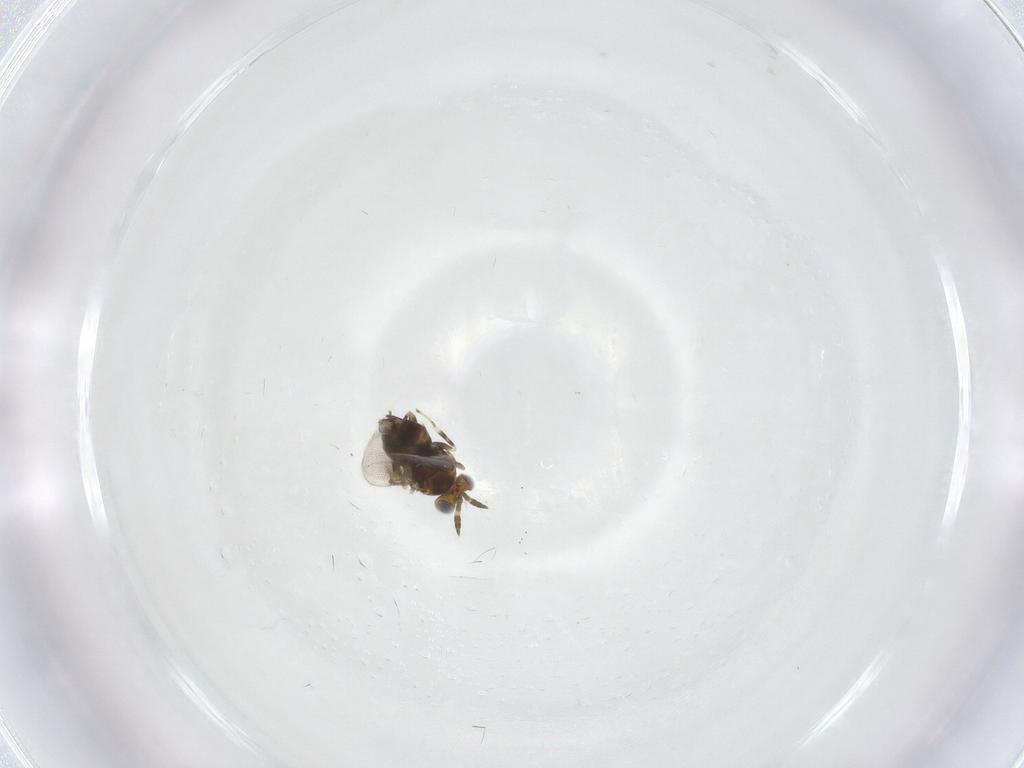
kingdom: Animalia
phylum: Arthropoda
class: Insecta
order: Hymenoptera
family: Aphelinidae
